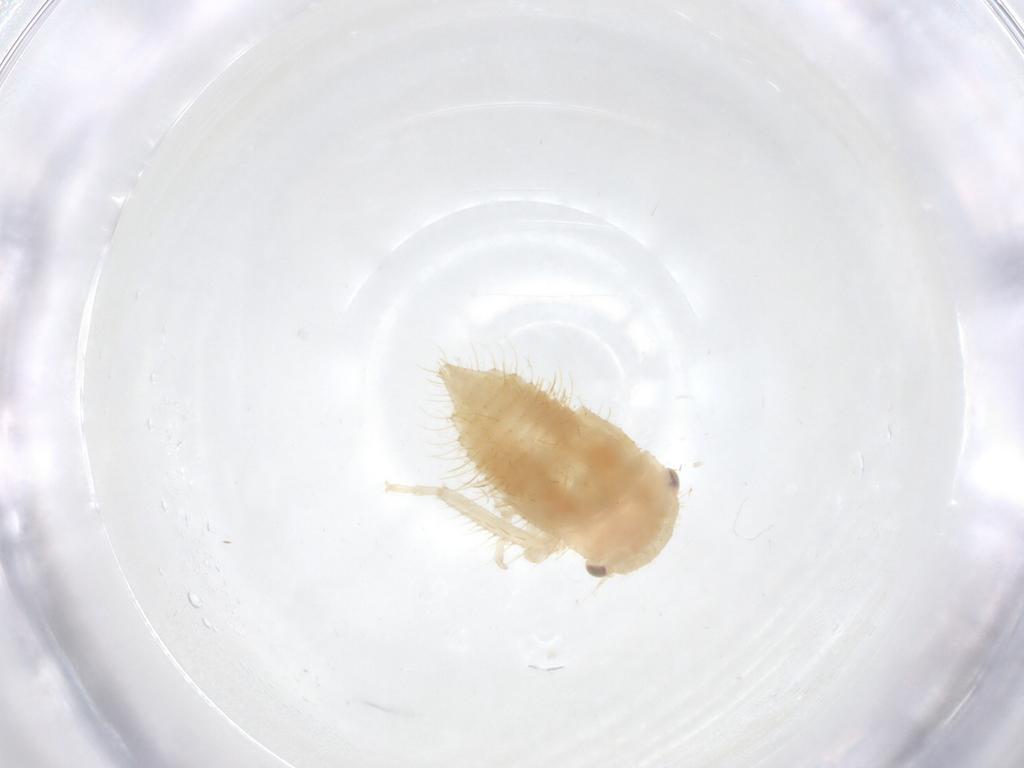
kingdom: Animalia
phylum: Arthropoda
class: Insecta
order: Hemiptera
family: Cicadellidae
